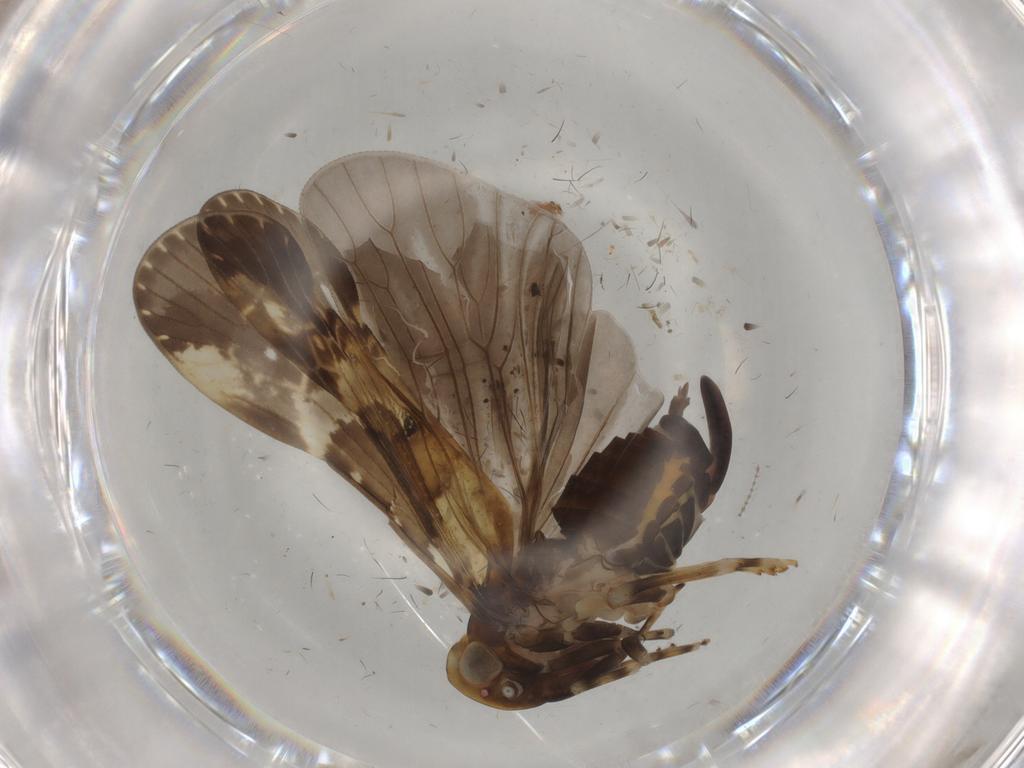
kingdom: Animalia
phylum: Arthropoda
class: Insecta
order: Hemiptera
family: Cixiidae
